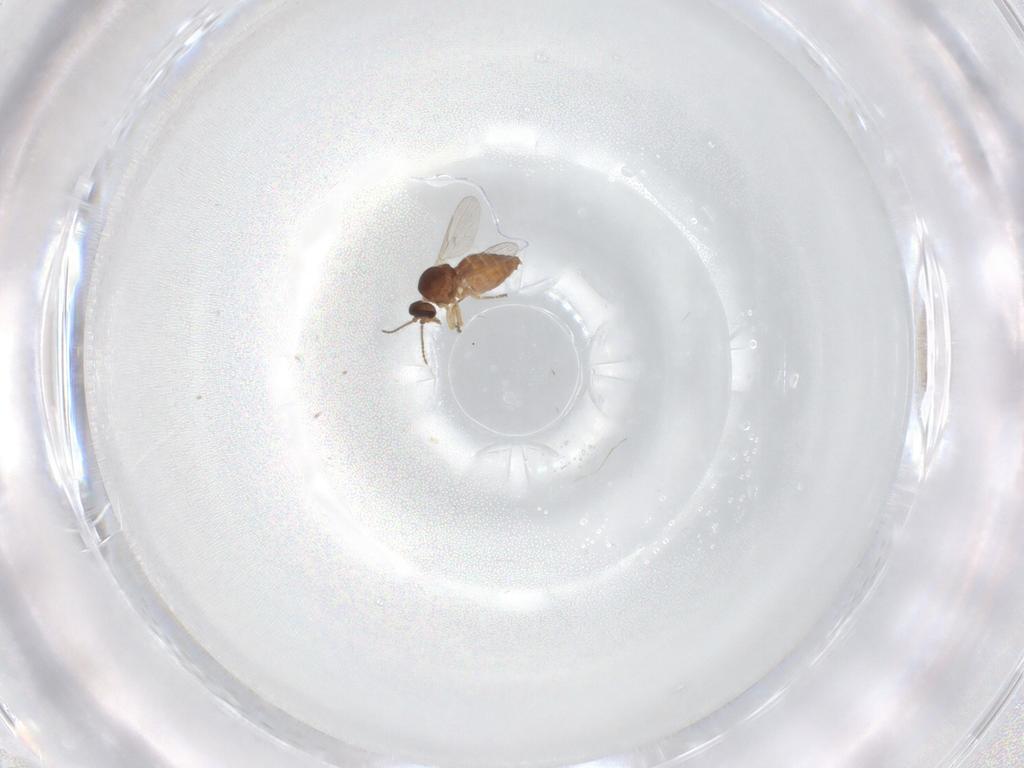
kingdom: Animalia
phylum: Arthropoda
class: Insecta
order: Diptera
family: Ceratopogonidae
